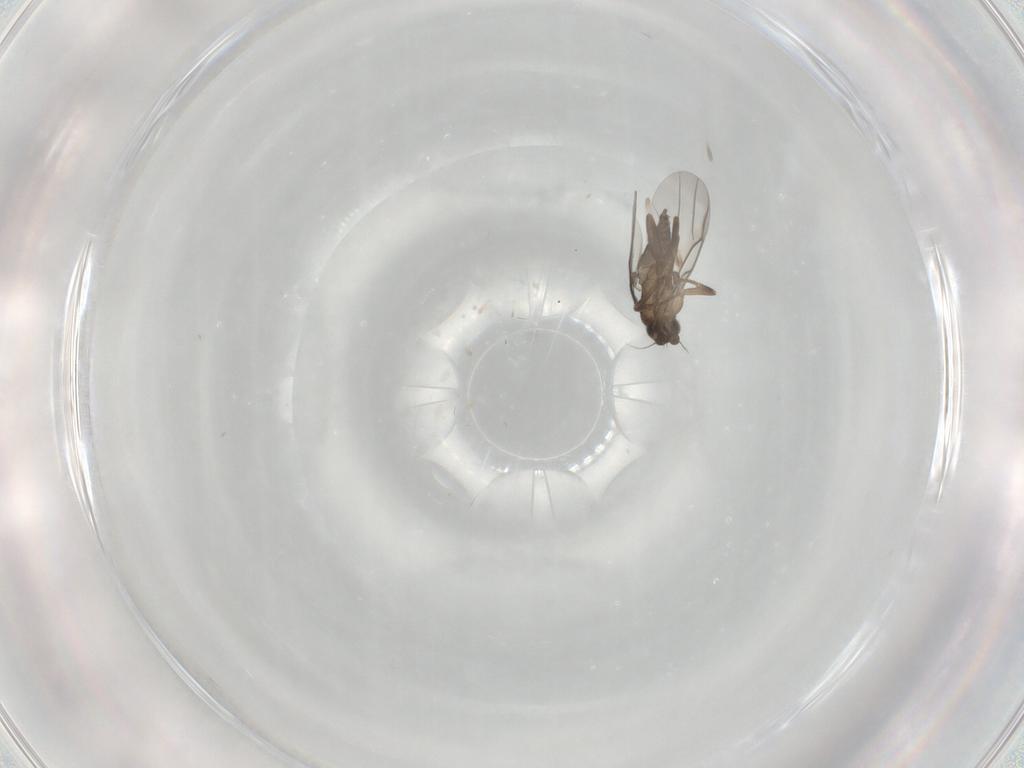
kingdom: Animalia
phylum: Arthropoda
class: Insecta
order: Diptera
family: Phoridae
